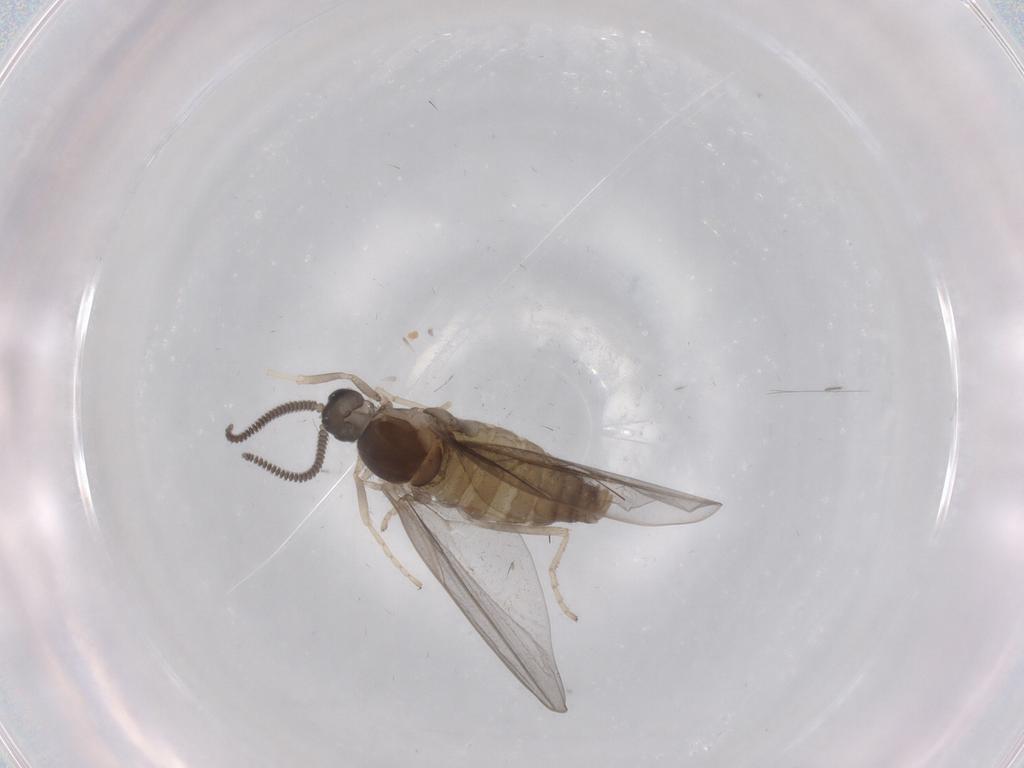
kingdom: Animalia
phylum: Arthropoda
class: Insecta
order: Diptera
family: Cecidomyiidae
